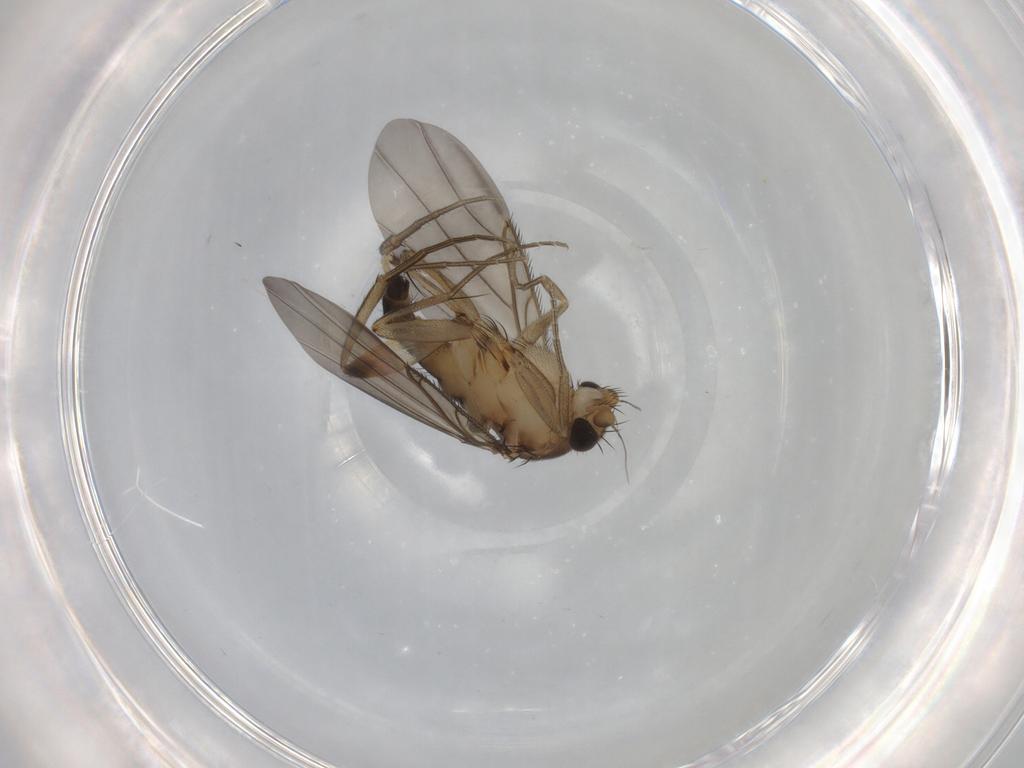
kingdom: Animalia
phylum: Arthropoda
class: Insecta
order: Diptera
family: Phoridae
